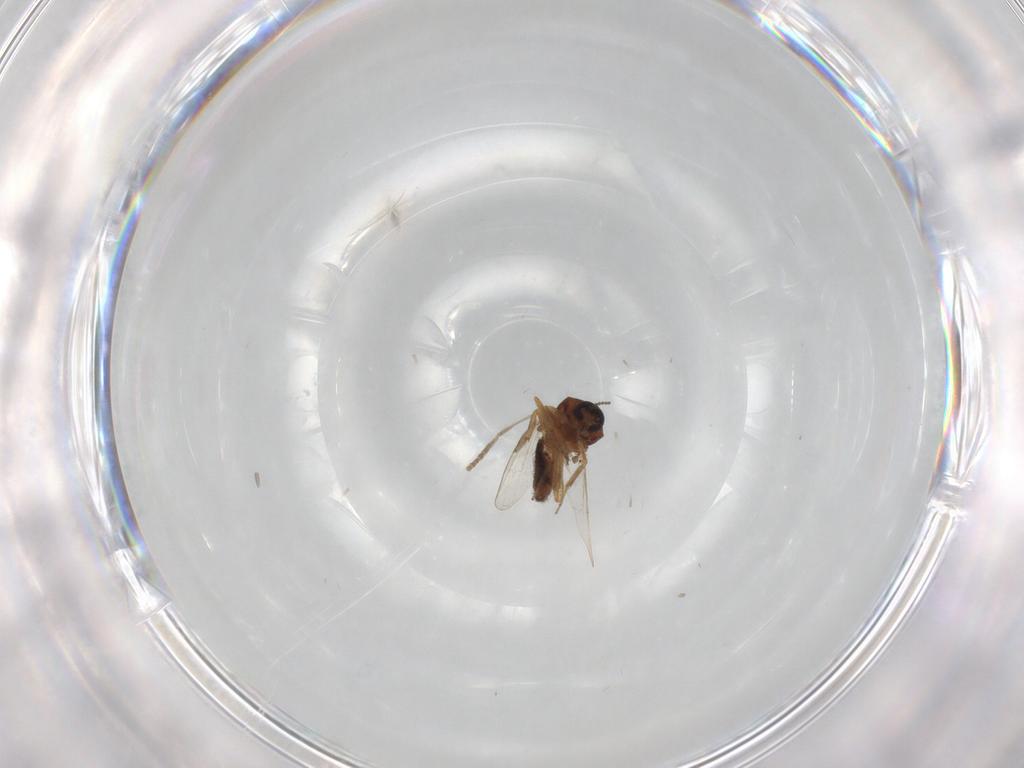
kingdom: Animalia
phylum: Arthropoda
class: Insecta
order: Diptera
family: Ceratopogonidae
